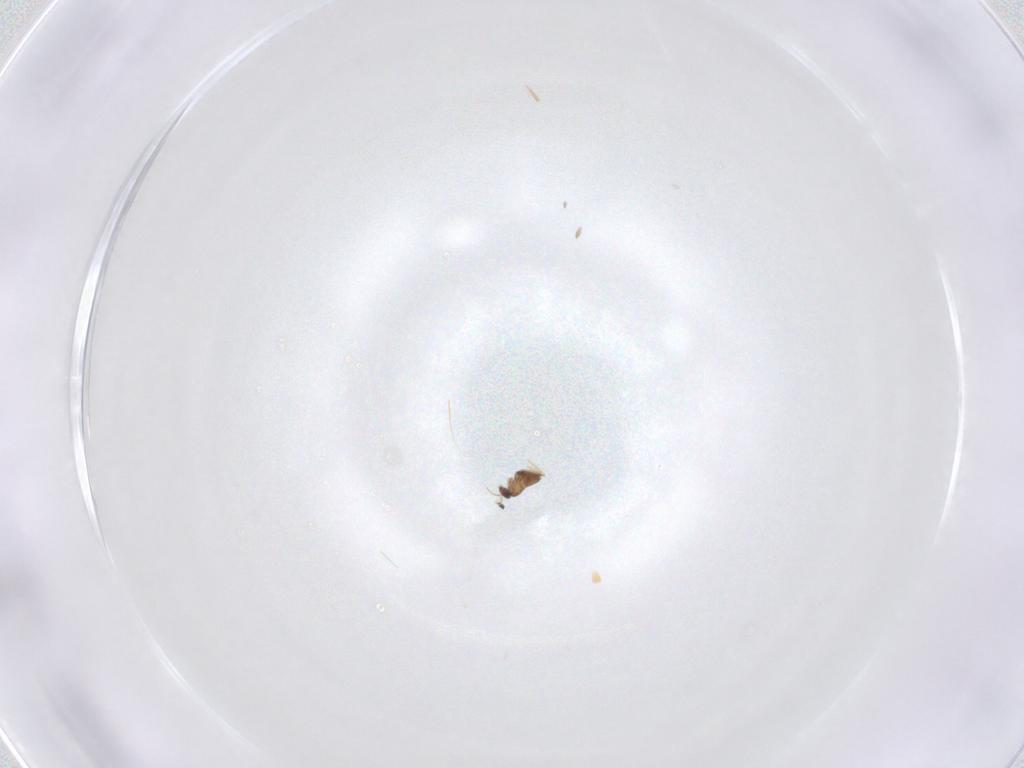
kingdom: Animalia
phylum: Arthropoda
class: Insecta
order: Diptera
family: Cecidomyiidae
